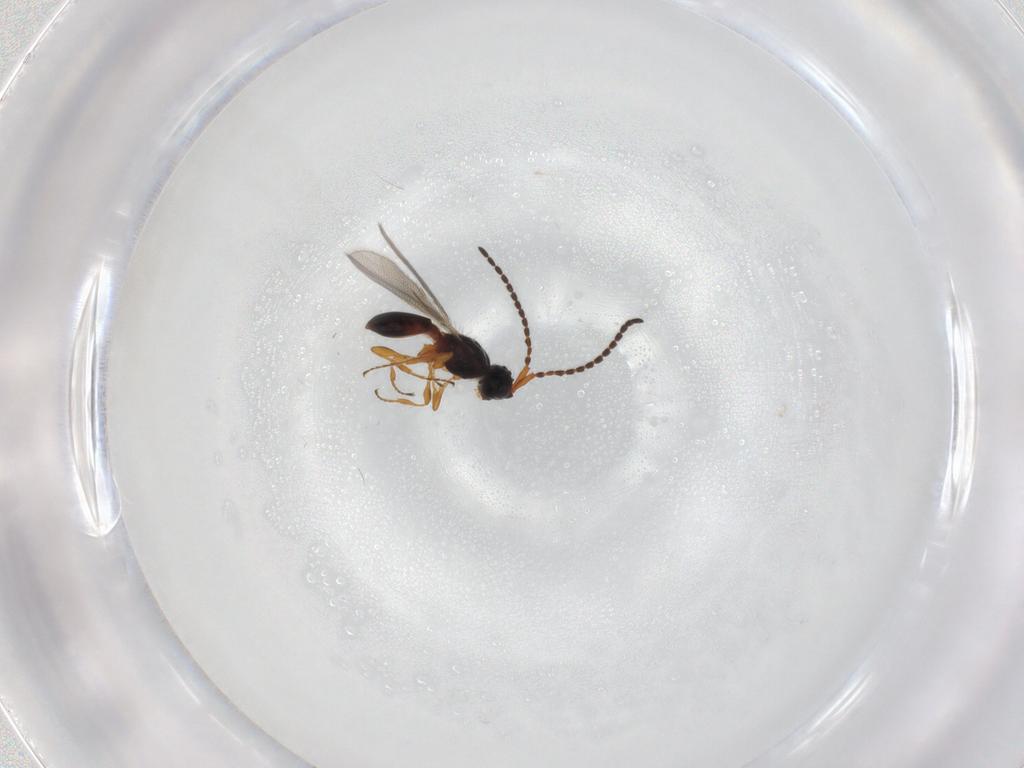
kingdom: Animalia
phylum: Arthropoda
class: Insecta
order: Hymenoptera
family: Diapriidae
